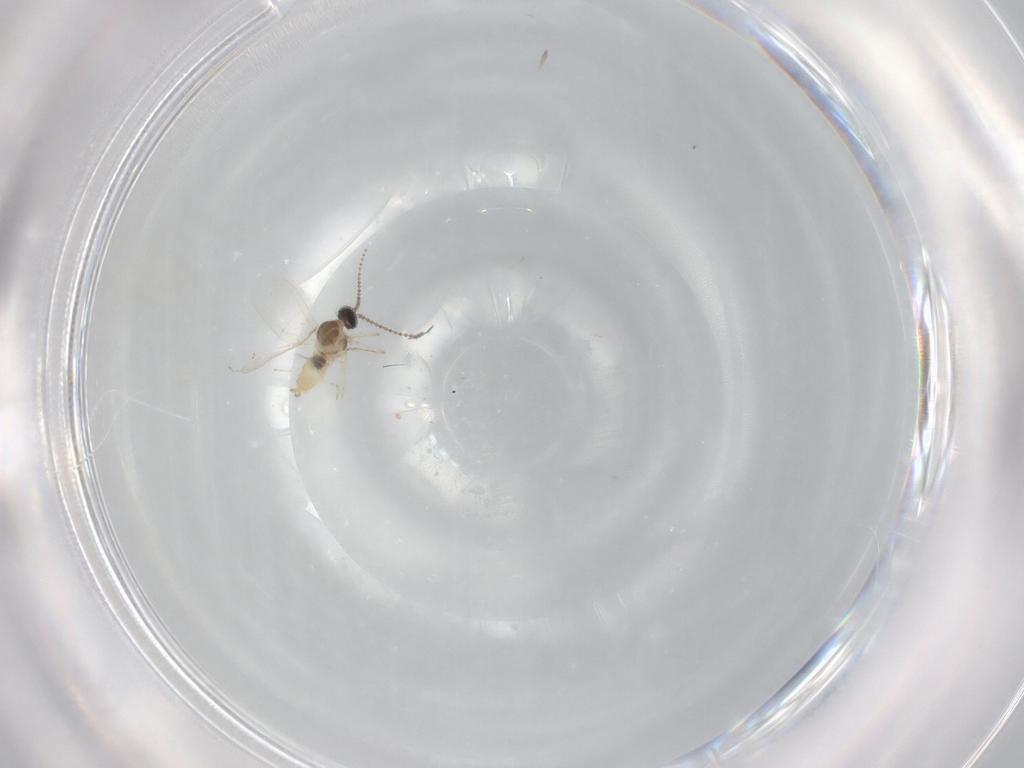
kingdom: Animalia
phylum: Arthropoda
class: Insecta
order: Diptera
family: Cecidomyiidae
